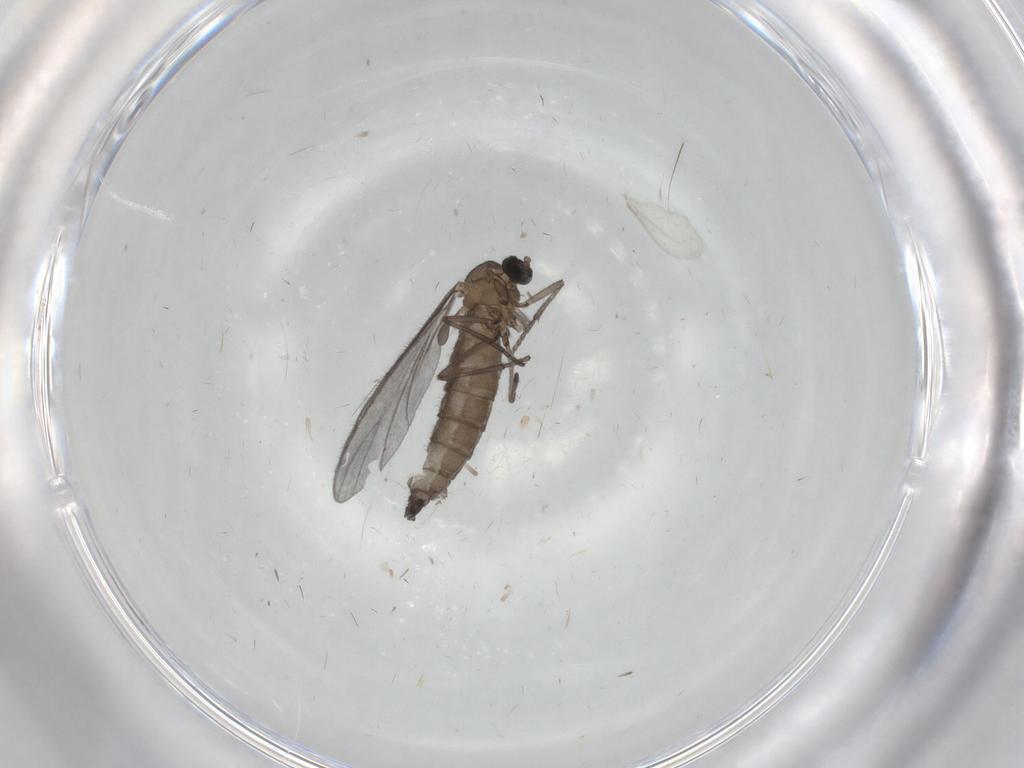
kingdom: Animalia
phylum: Arthropoda
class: Insecta
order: Diptera
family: Sciaridae
